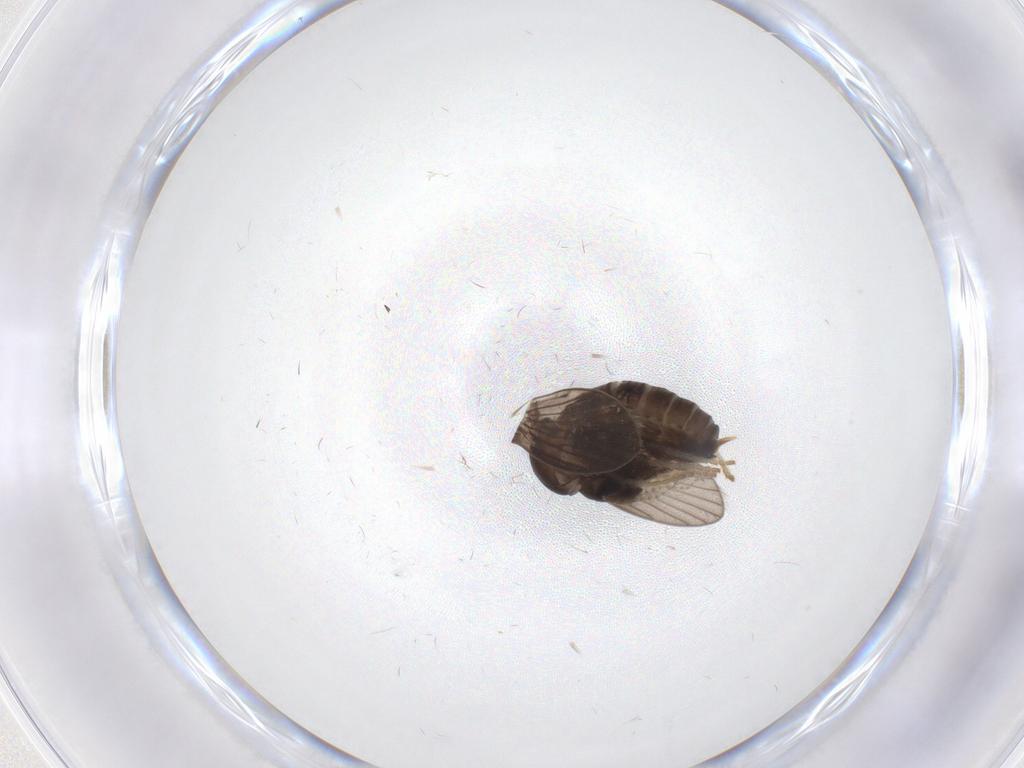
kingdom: Animalia
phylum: Arthropoda
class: Insecta
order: Diptera
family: Psychodidae
